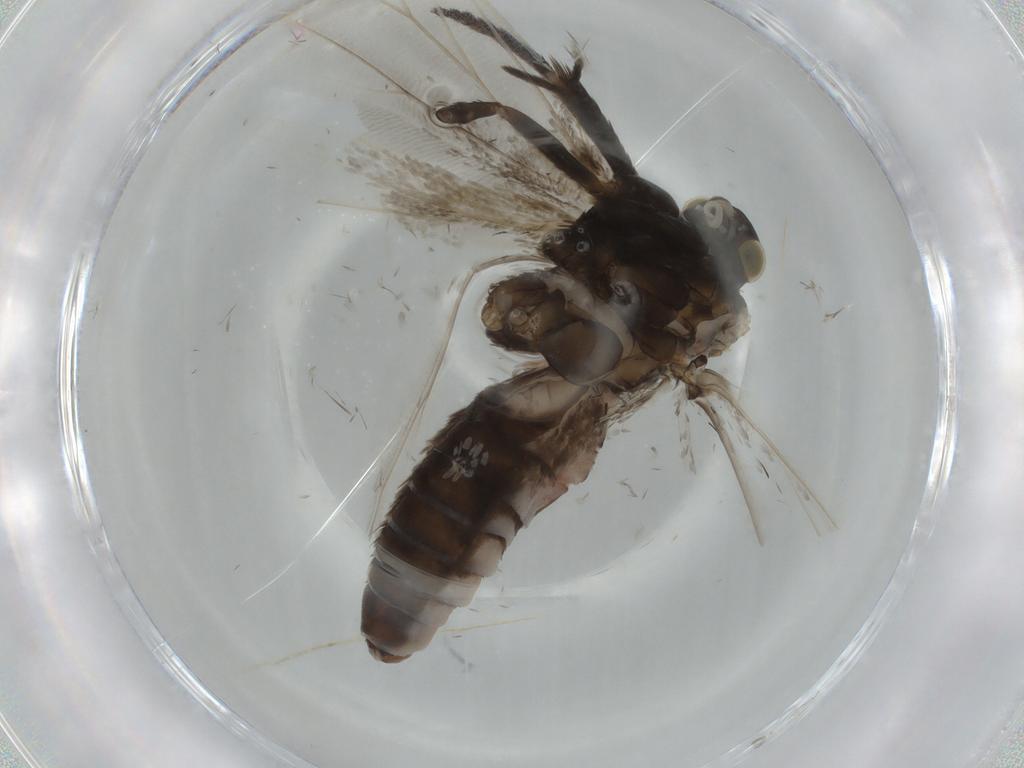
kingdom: Animalia
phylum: Arthropoda
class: Insecta
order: Lepidoptera
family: Tortricidae
